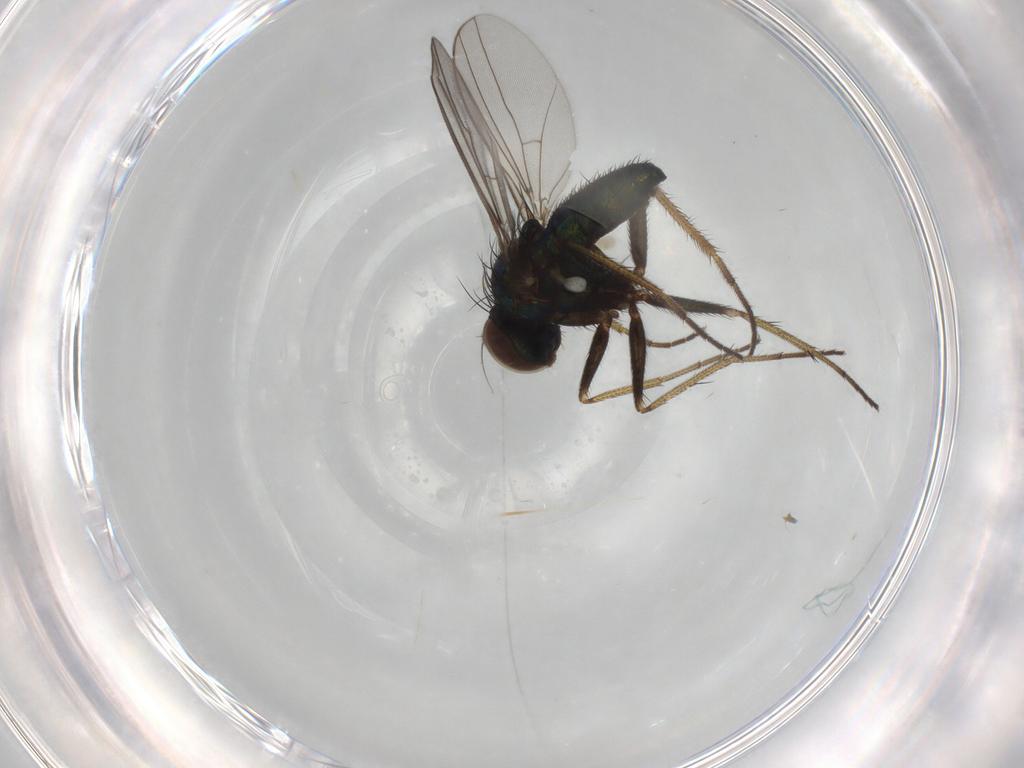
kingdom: Animalia
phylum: Arthropoda
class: Insecta
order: Diptera
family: Dolichopodidae
